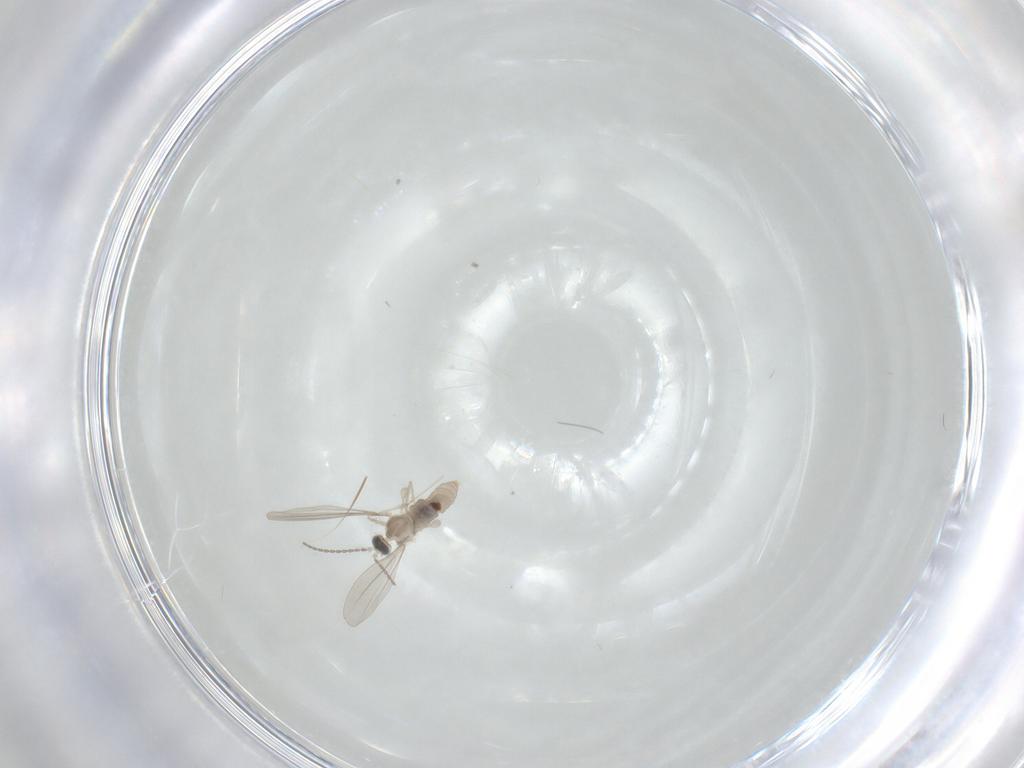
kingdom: Animalia
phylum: Arthropoda
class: Insecta
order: Diptera
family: Cecidomyiidae
